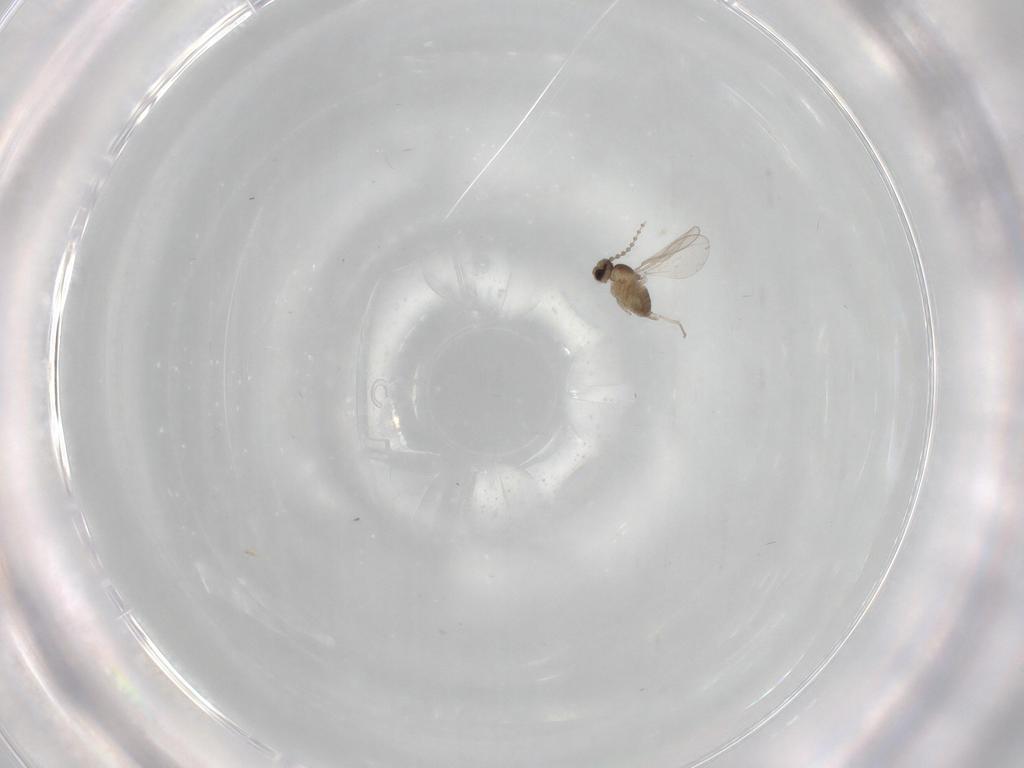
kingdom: Animalia
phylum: Arthropoda
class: Insecta
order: Diptera
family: Cecidomyiidae
